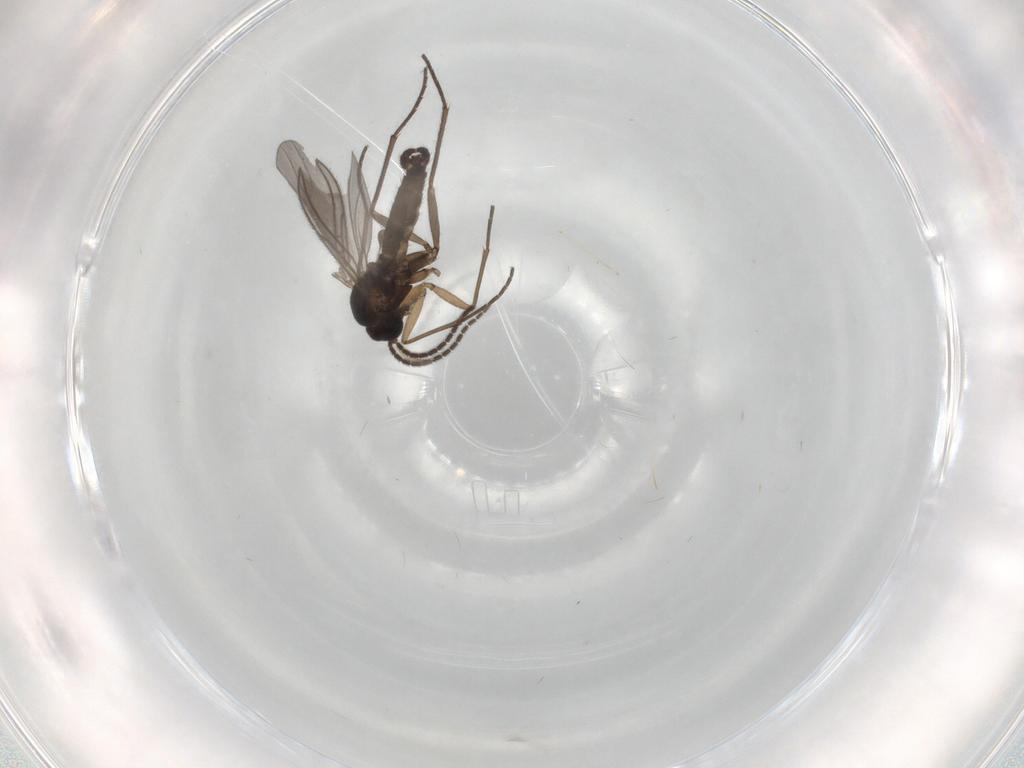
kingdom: Animalia
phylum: Arthropoda
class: Insecta
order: Diptera
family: Sciaridae
